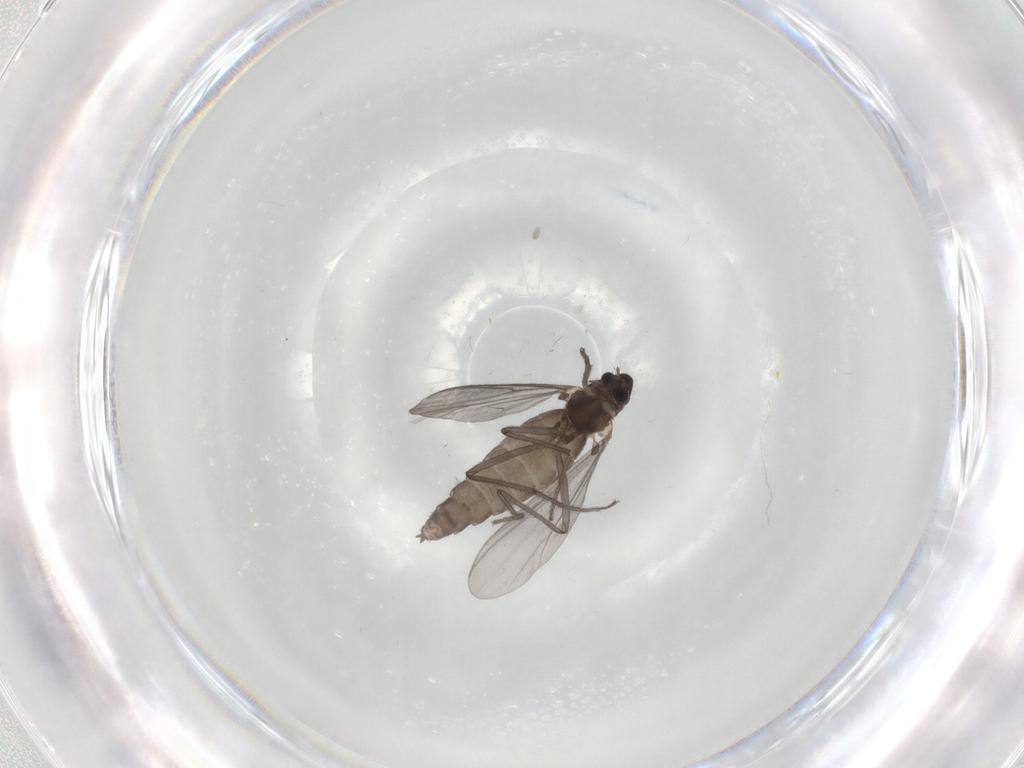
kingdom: Animalia
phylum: Arthropoda
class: Insecta
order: Diptera
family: Chironomidae
